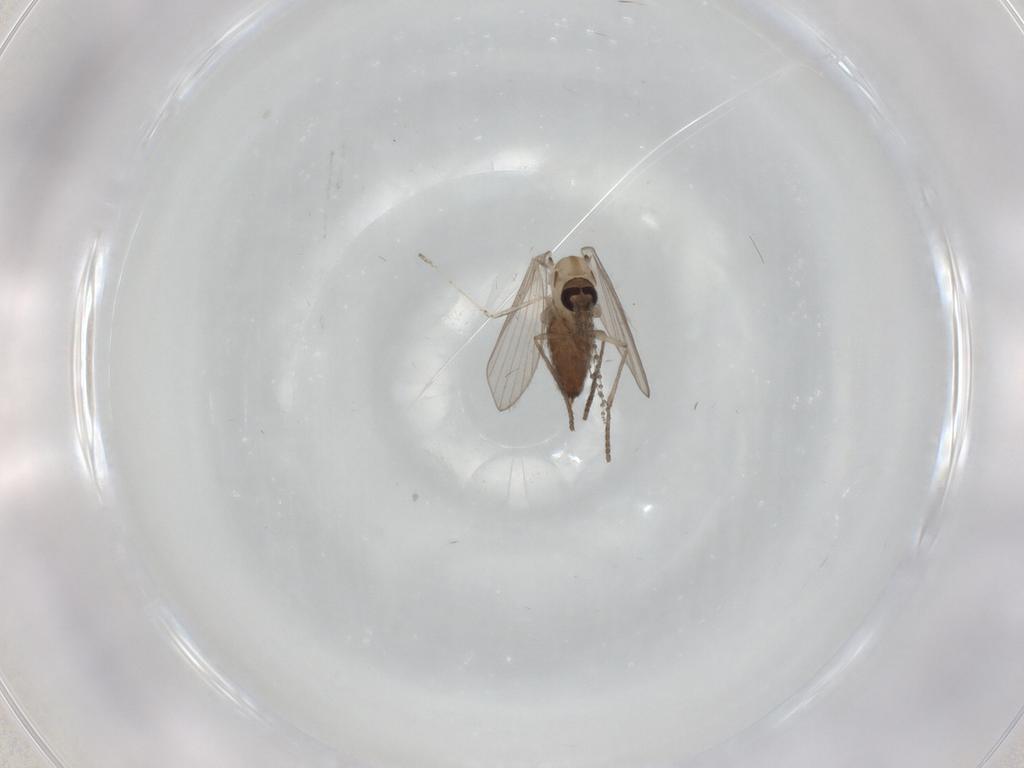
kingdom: Animalia
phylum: Arthropoda
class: Insecta
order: Diptera
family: Psychodidae
